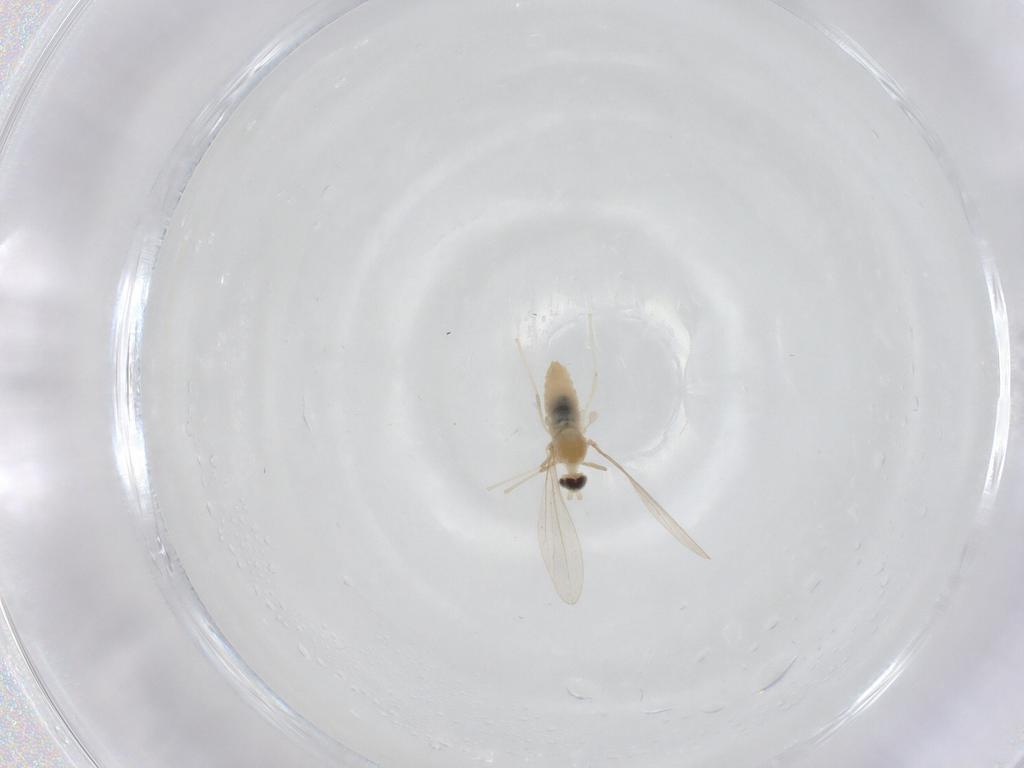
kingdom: Animalia
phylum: Arthropoda
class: Insecta
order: Diptera
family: Cecidomyiidae
